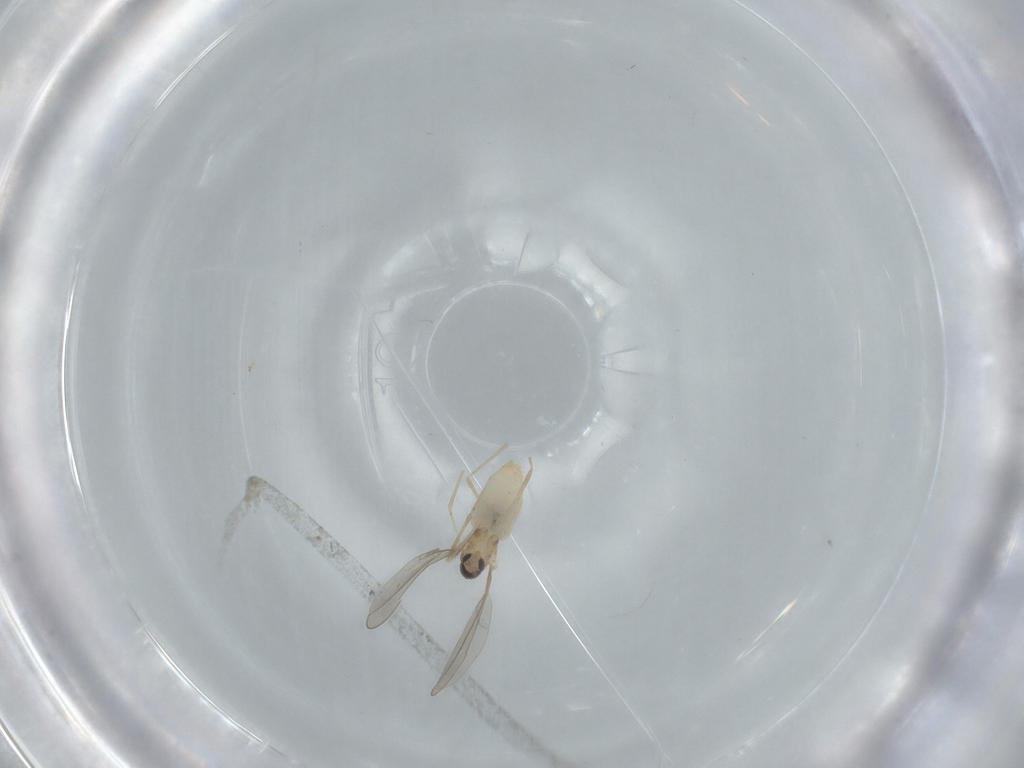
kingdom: Animalia
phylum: Arthropoda
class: Insecta
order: Diptera
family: Cecidomyiidae
